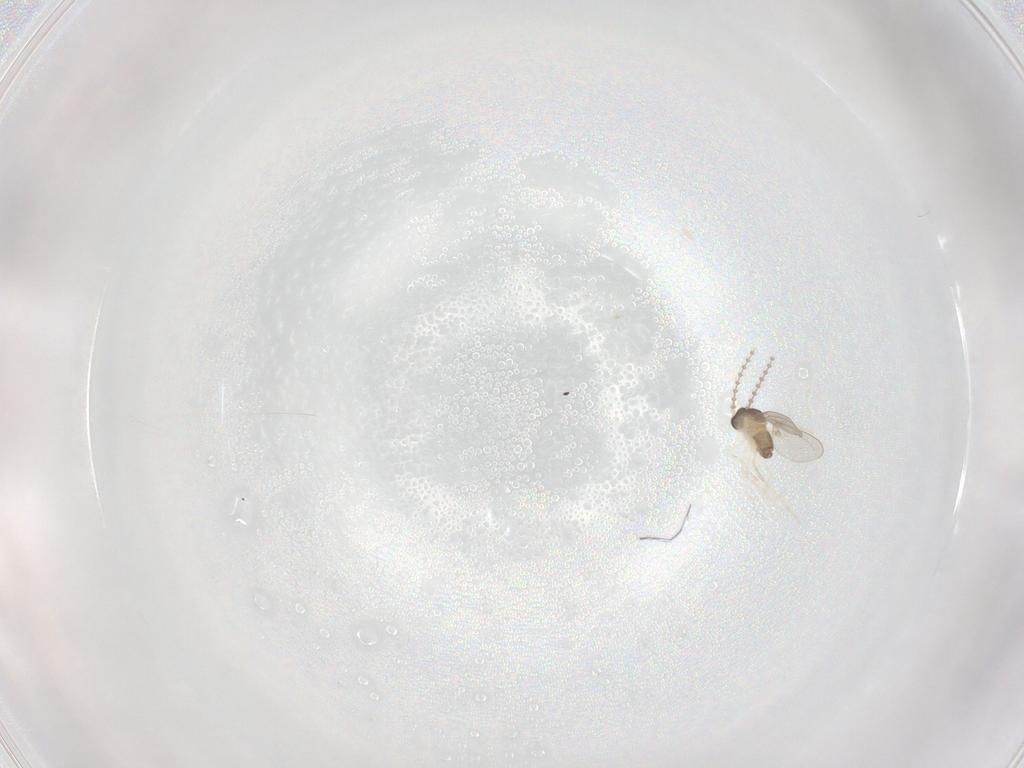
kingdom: Animalia
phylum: Arthropoda
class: Insecta
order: Diptera
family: Chironomidae
